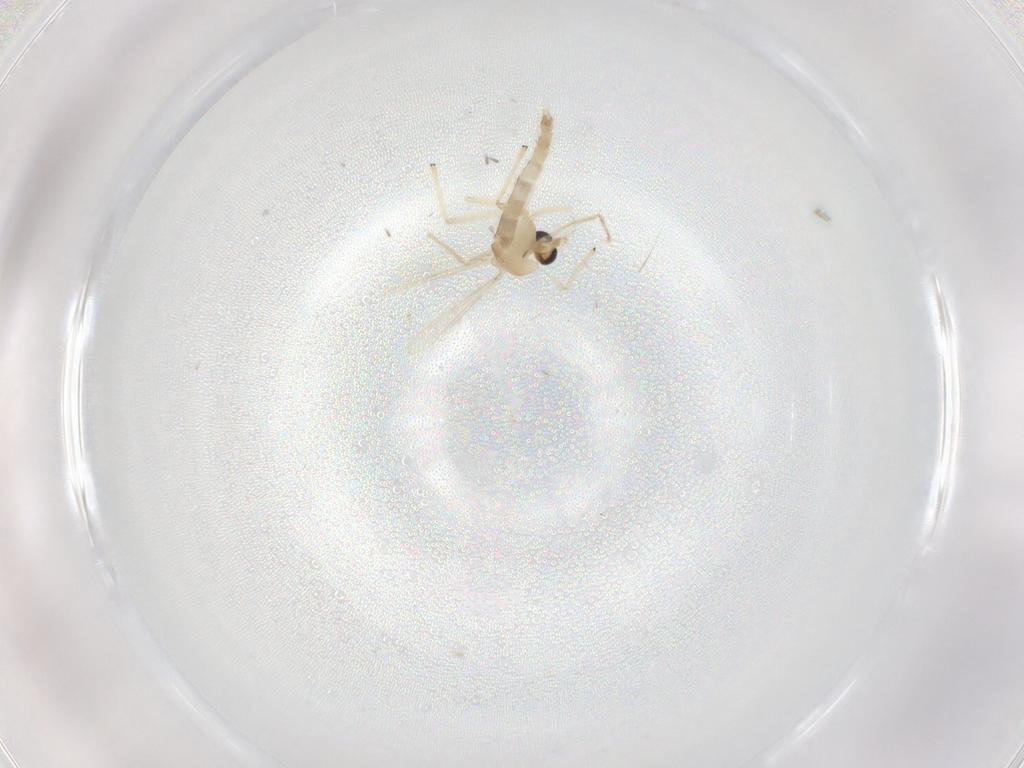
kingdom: Animalia
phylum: Arthropoda
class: Insecta
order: Diptera
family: Chironomidae
